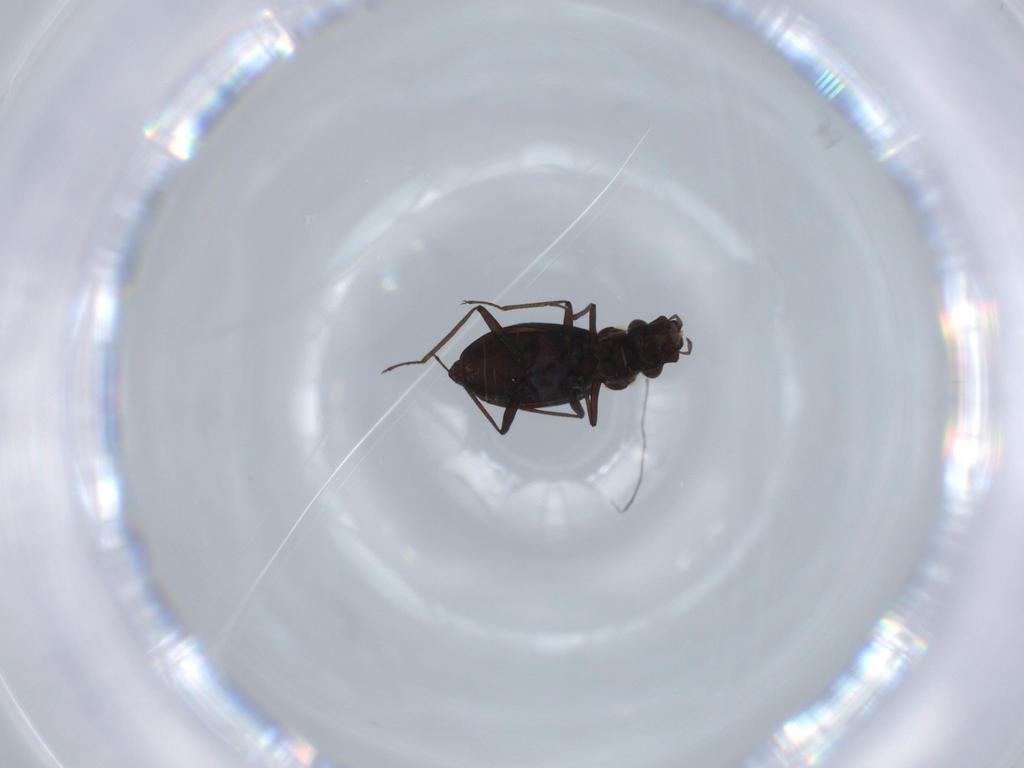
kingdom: Animalia
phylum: Arthropoda
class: Insecta
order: Coleoptera
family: Hydraenidae
